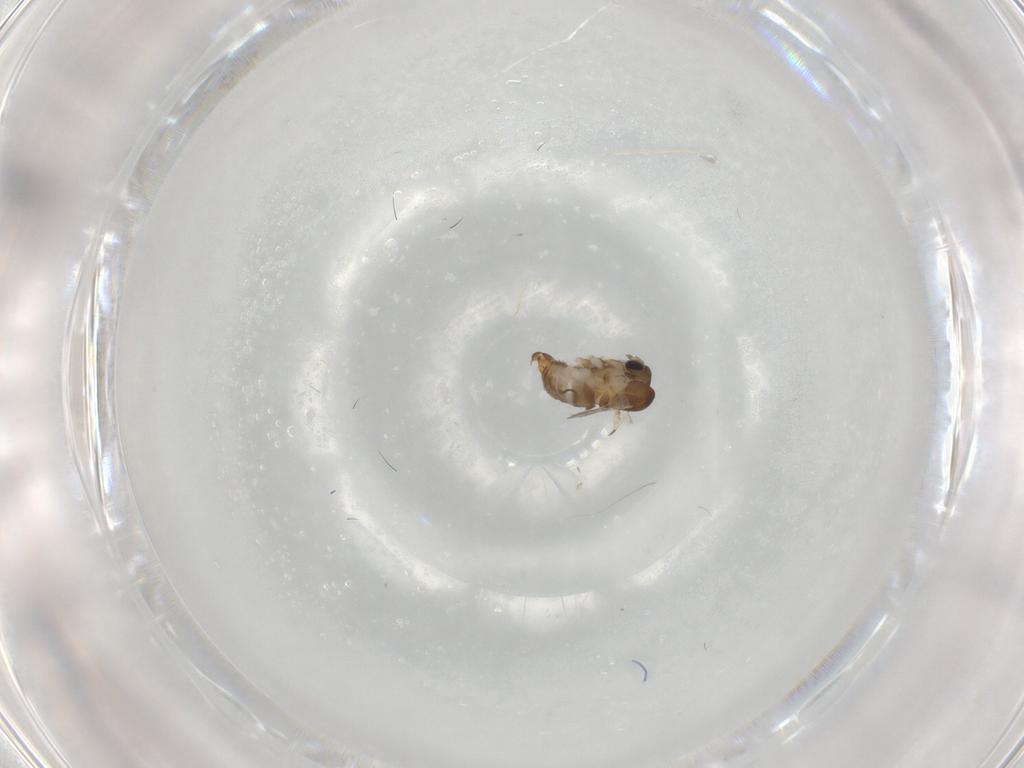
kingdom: Animalia
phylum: Arthropoda
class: Insecta
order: Diptera
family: Psychodidae
